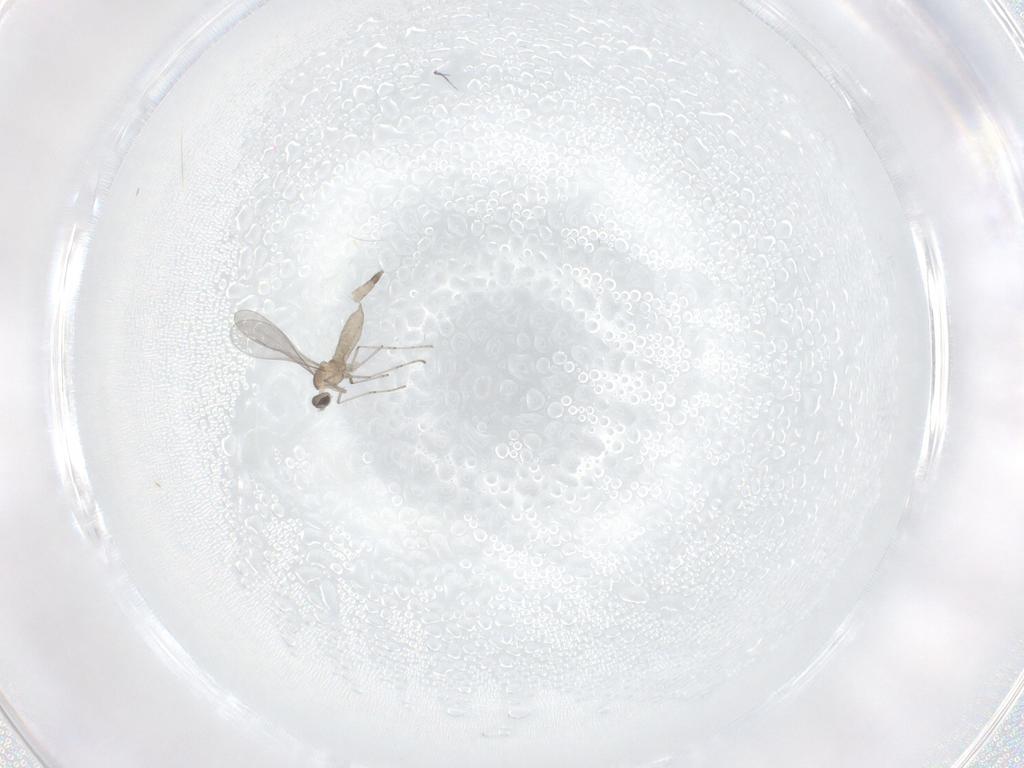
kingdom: Animalia
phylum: Arthropoda
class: Insecta
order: Diptera
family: Cecidomyiidae
